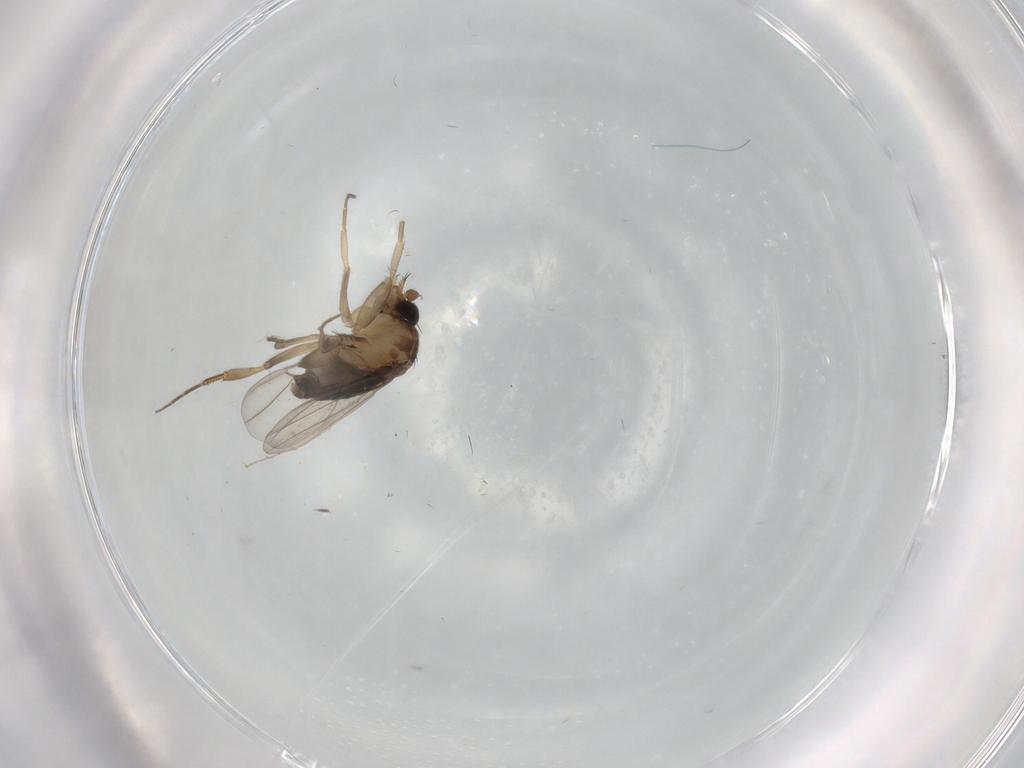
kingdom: Animalia
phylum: Arthropoda
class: Insecta
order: Diptera
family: Phoridae
